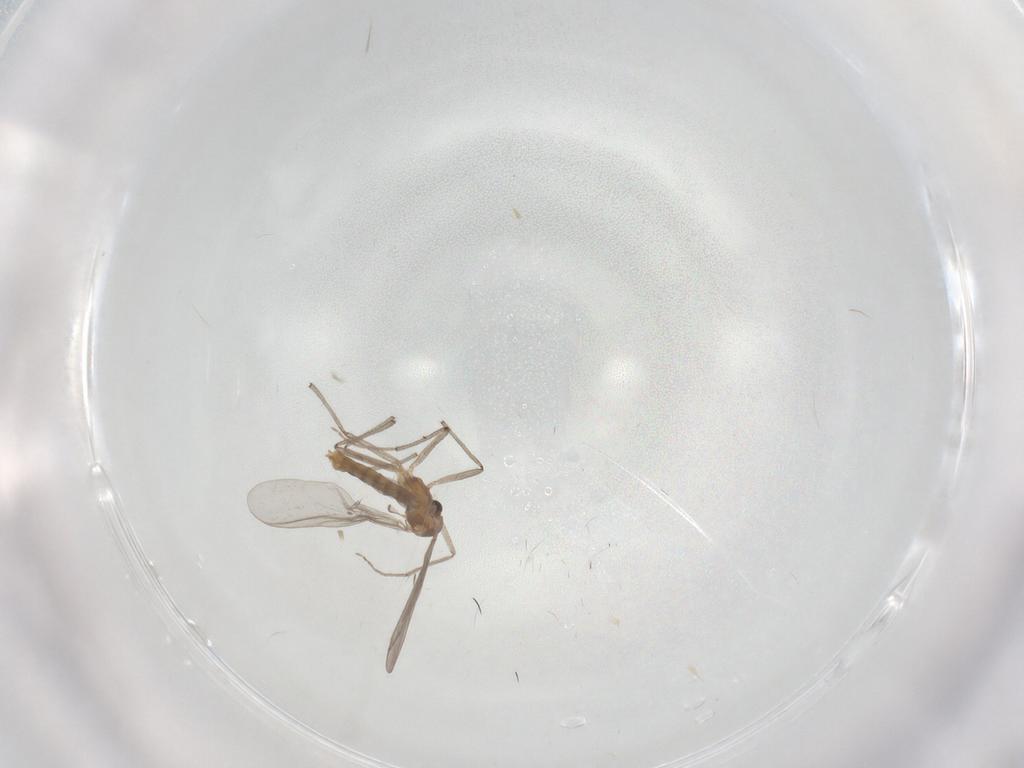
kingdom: Animalia
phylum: Arthropoda
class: Insecta
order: Diptera
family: Chironomidae
